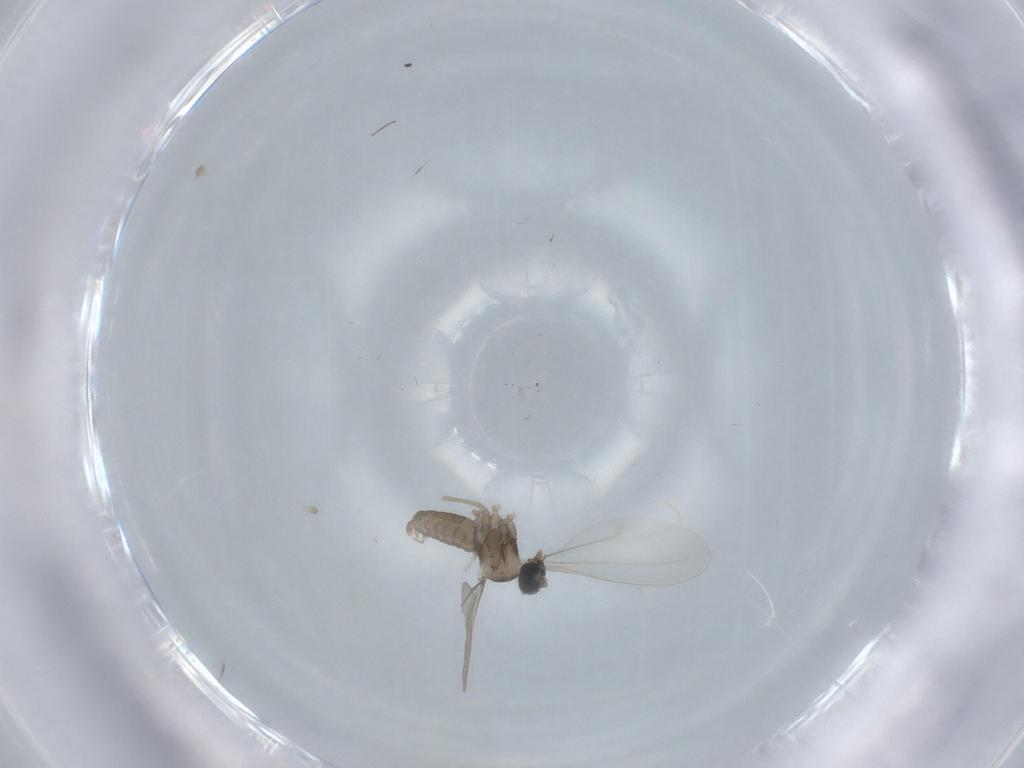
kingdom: Animalia
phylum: Arthropoda
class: Insecta
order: Diptera
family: Cecidomyiidae
